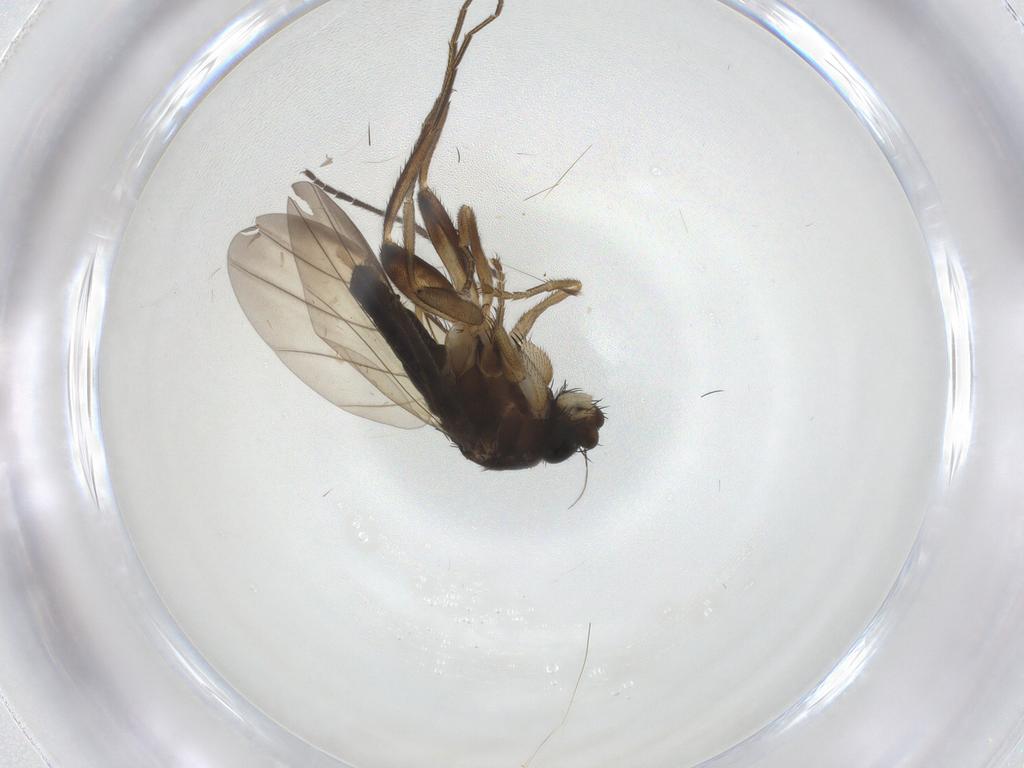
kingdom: Animalia
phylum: Arthropoda
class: Insecta
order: Diptera
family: Phoridae
